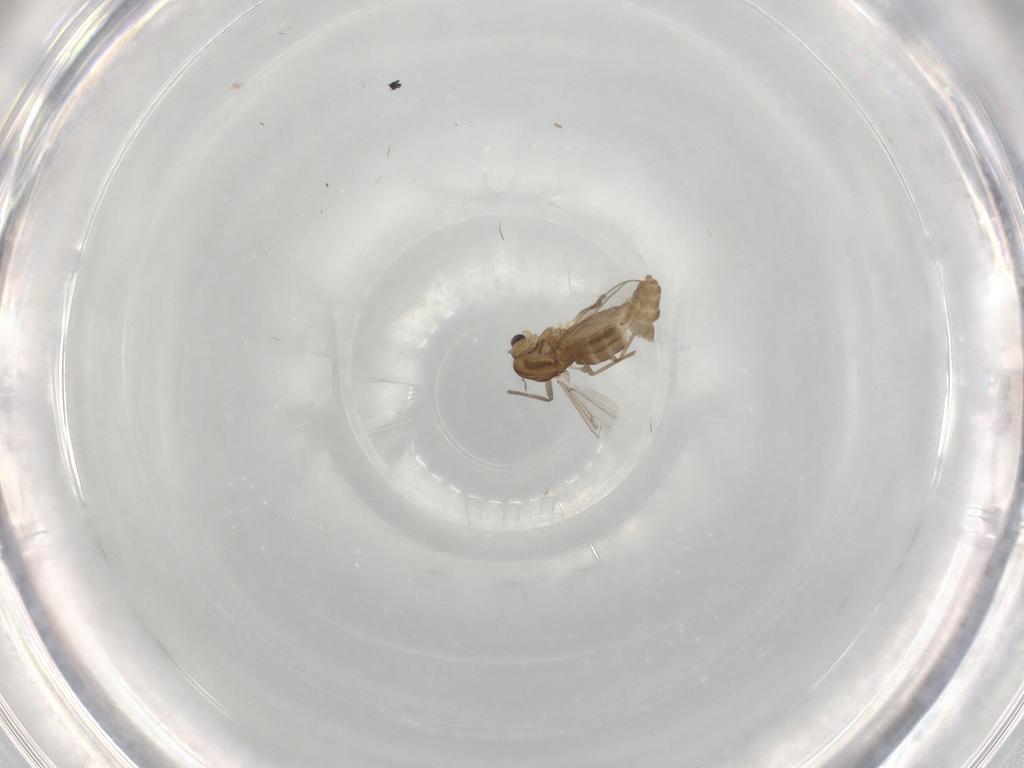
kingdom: Animalia
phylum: Arthropoda
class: Insecta
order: Diptera
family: Chironomidae
